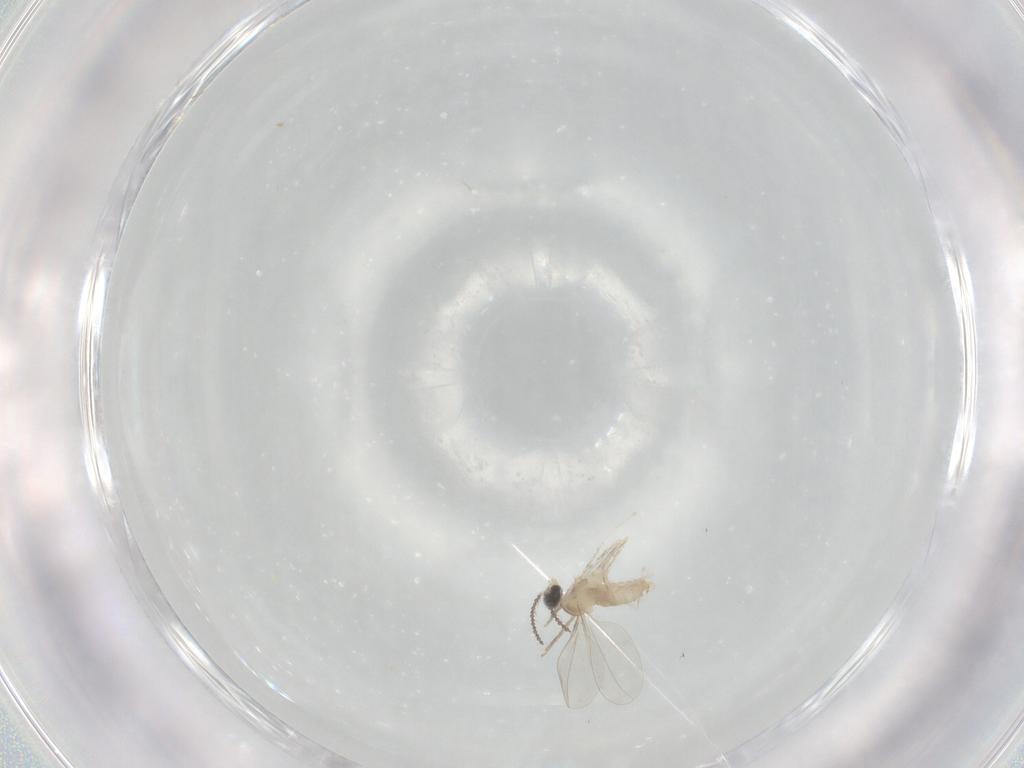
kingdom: Animalia
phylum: Arthropoda
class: Insecta
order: Diptera
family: Cecidomyiidae
